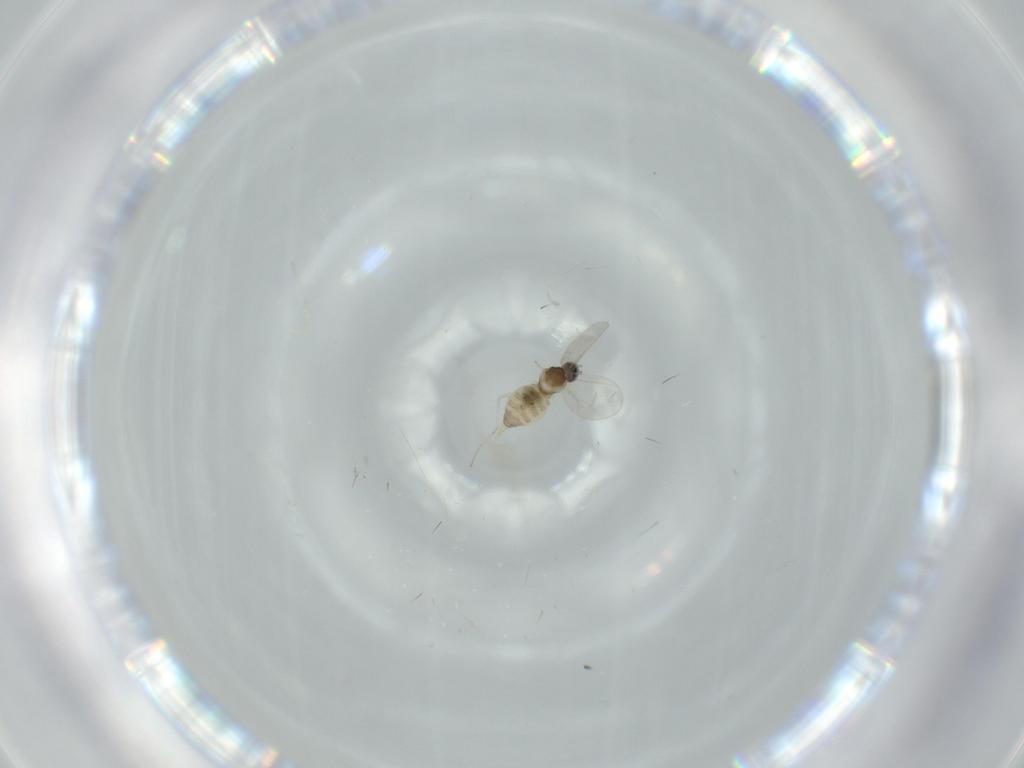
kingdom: Animalia
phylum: Arthropoda
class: Insecta
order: Diptera
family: Cecidomyiidae
